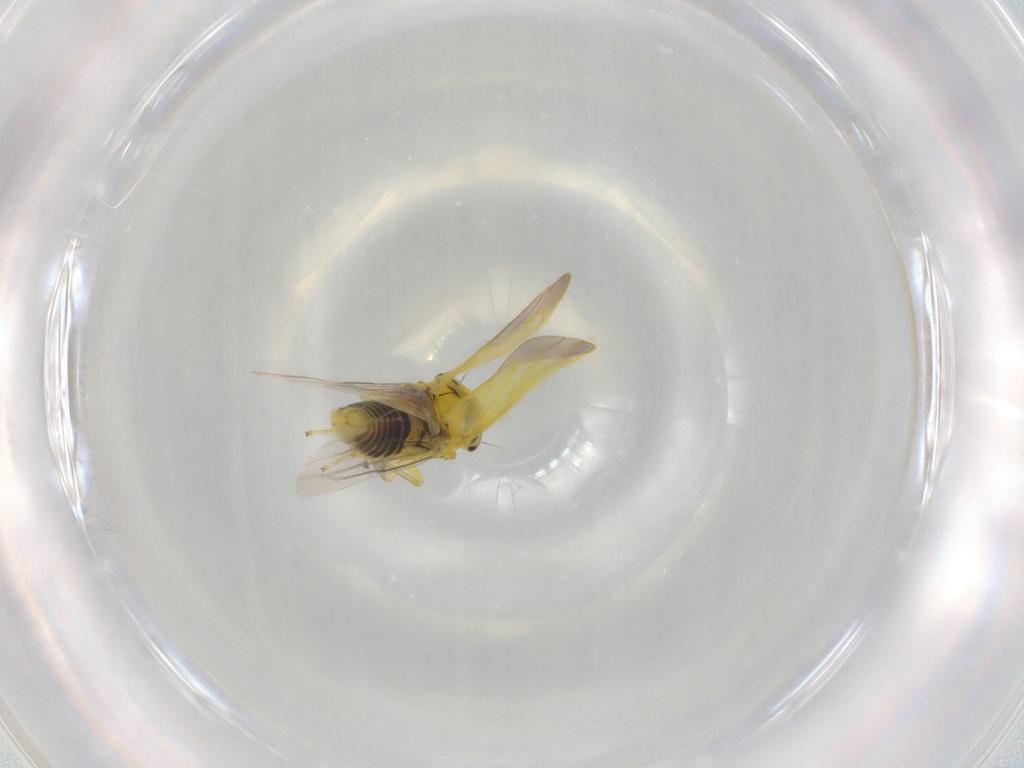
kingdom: Animalia
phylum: Arthropoda
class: Insecta
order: Hemiptera
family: Cicadellidae
